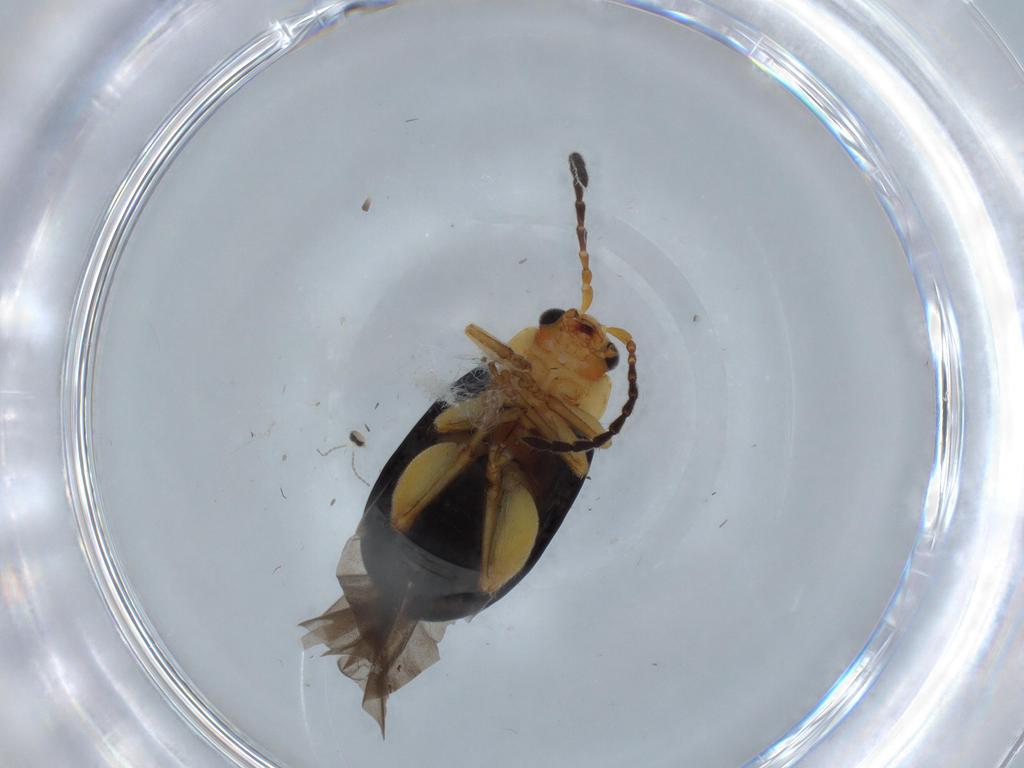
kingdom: Animalia
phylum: Arthropoda
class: Insecta
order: Coleoptera
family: Chrysomelidae
